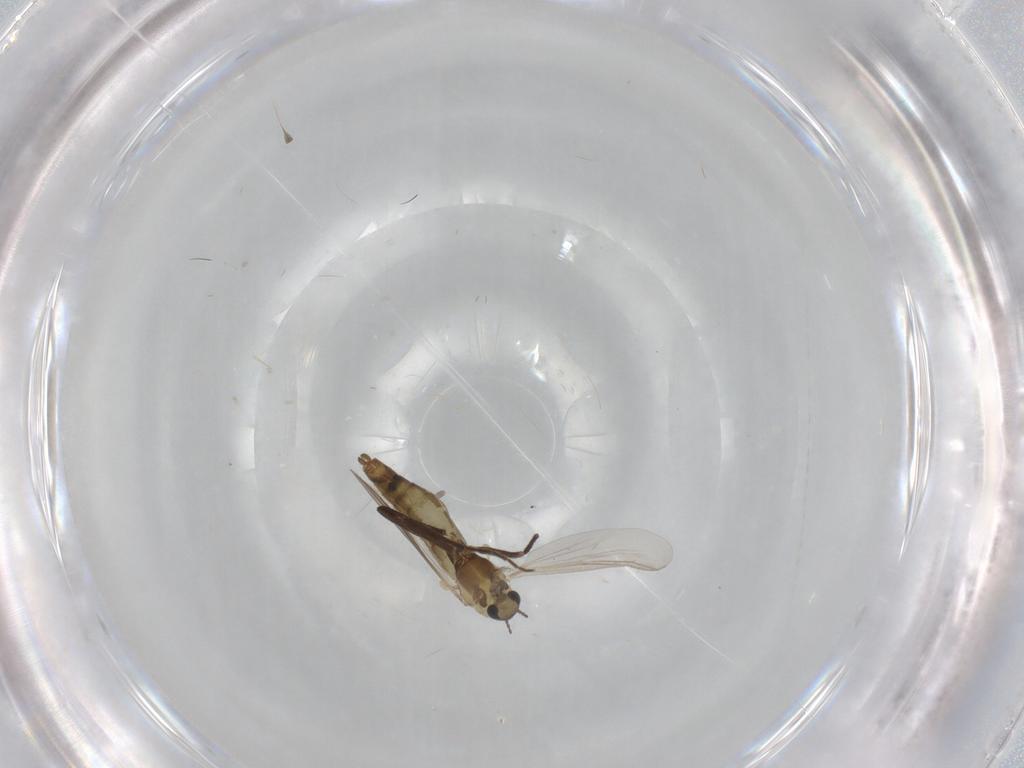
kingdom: Animalia
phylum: Arthropoda
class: Insecta
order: Diptera
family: Chironomidae
